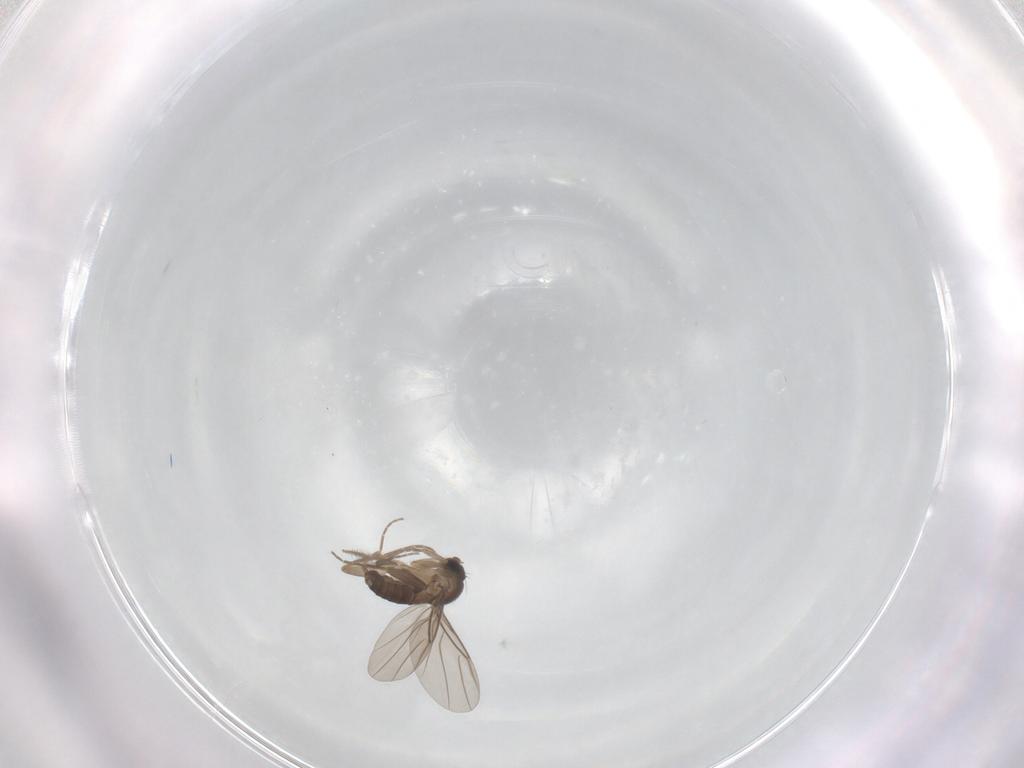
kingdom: Animalia
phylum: Arthropoda
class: Insecta
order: Diptera
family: Chironomidae
